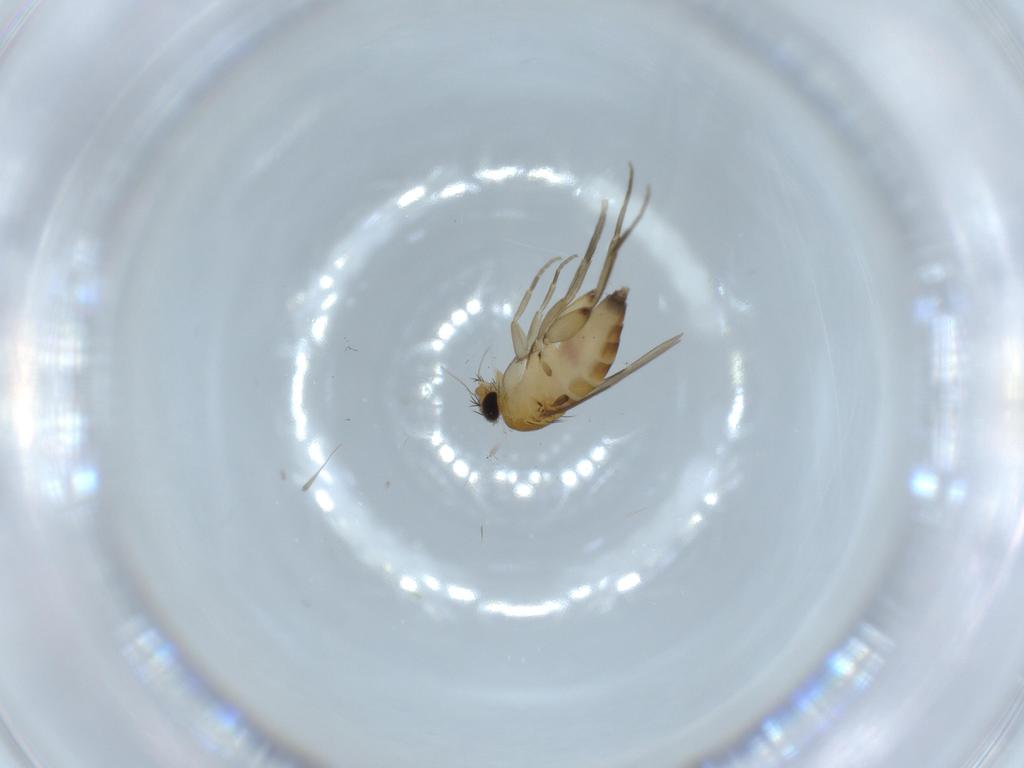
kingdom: Animalia
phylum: Arthropoda
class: Insecta
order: Diptera
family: Phoridae
